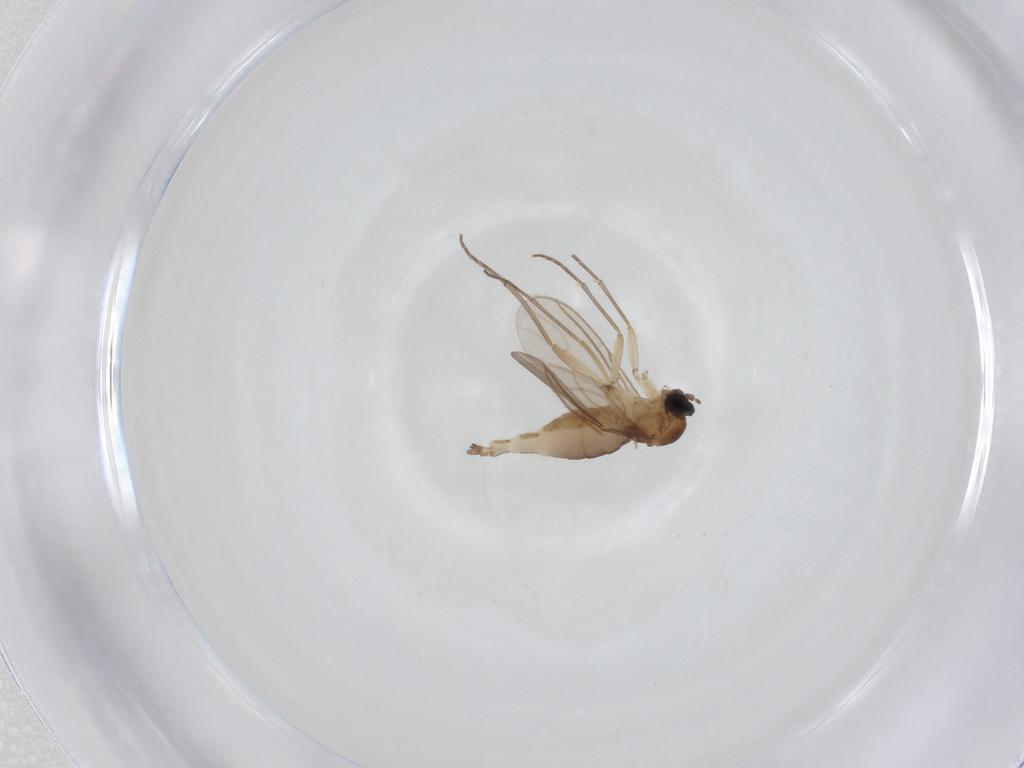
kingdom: Animalia
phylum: Arthropoda
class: Insecta
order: Diptera
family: Sciaridae
